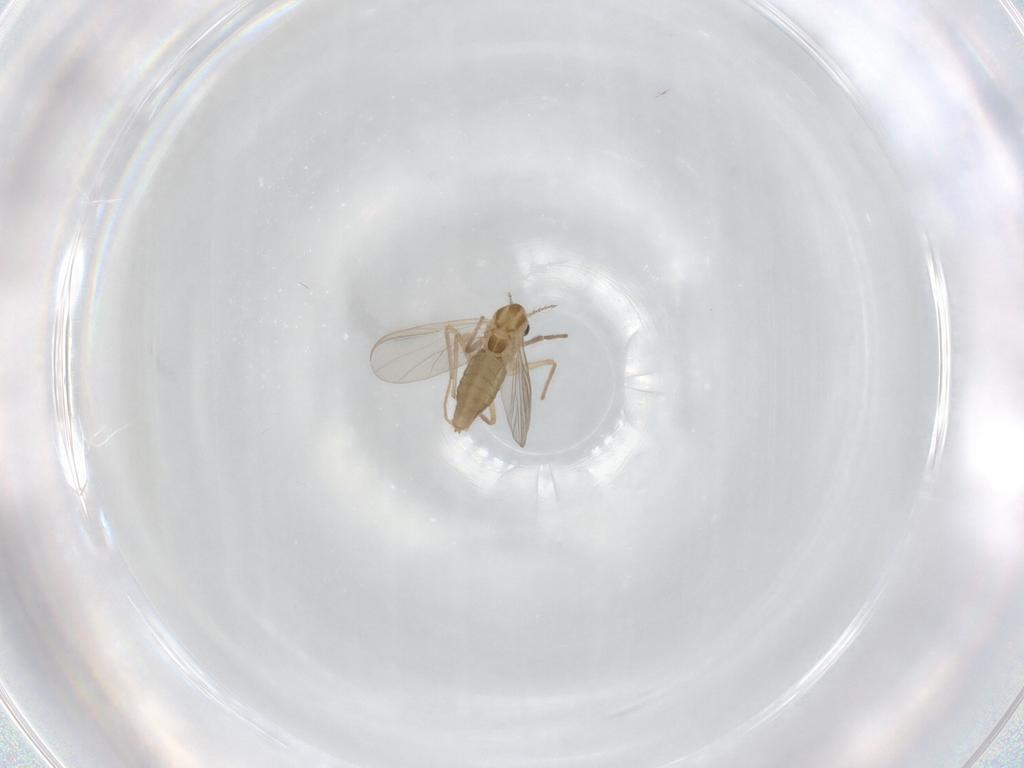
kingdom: Animalia
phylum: Arthropoda
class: Insecta
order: Diptera
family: Chironomidae
